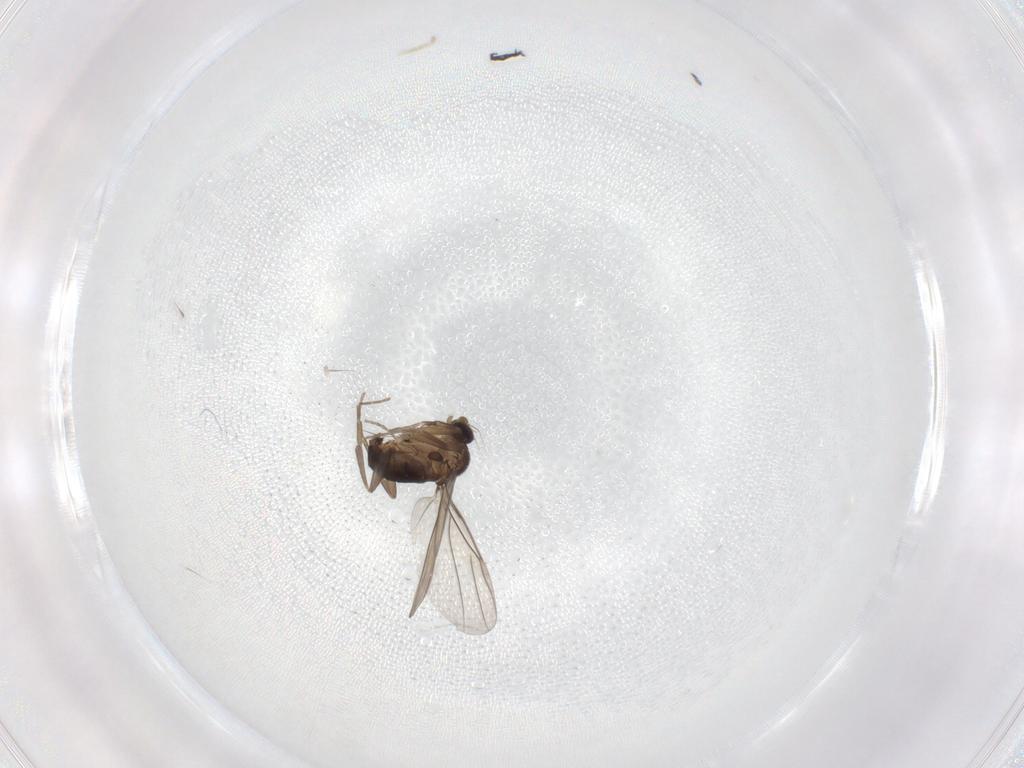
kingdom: Animalia
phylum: Arthropoda
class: Insecta
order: Diptera
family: Phoridae
